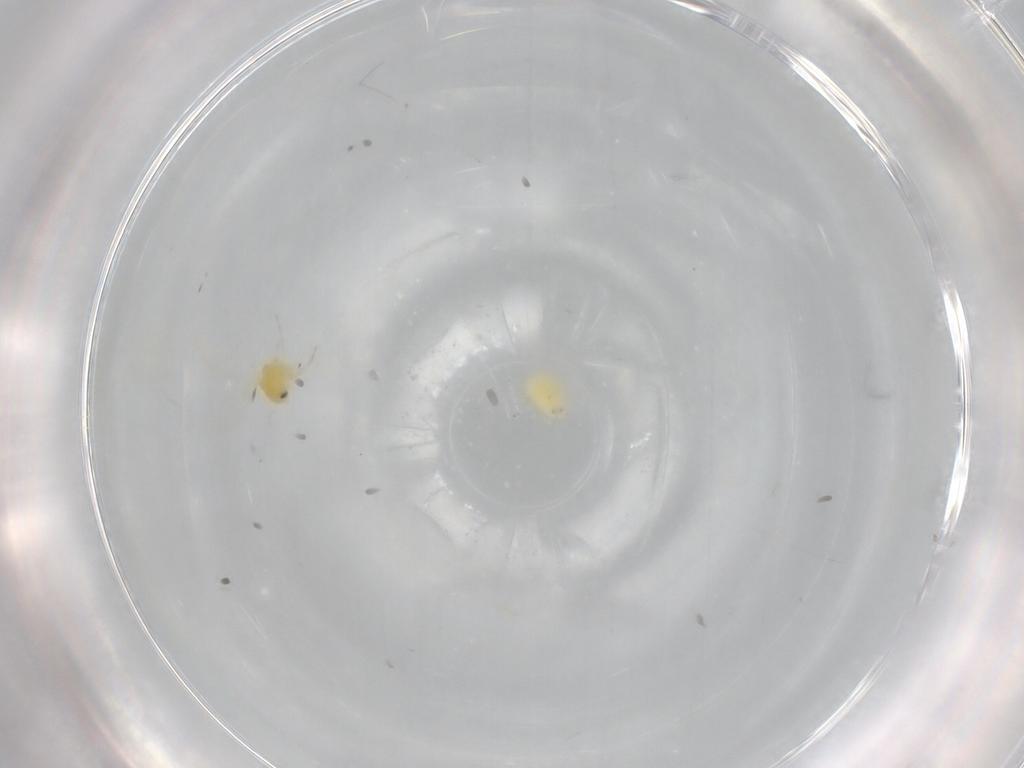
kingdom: Animalia
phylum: Arthropoda
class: Insecta
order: Hemiptera
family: Aleyrodidae
